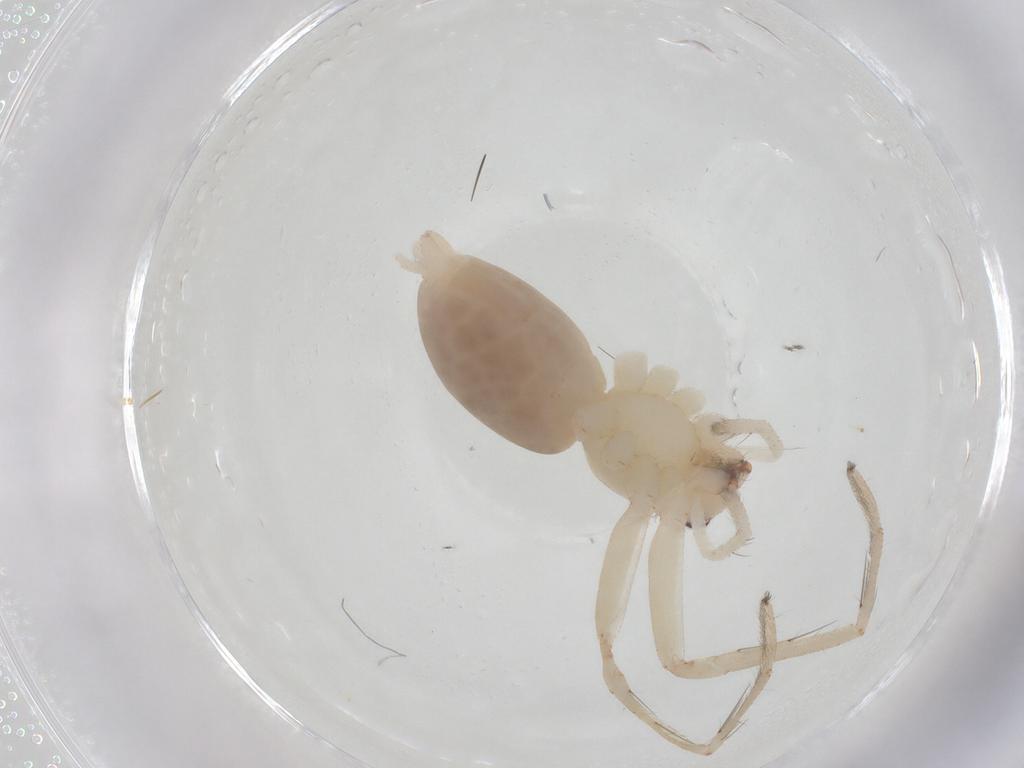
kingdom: Animalia
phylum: Arthropoda
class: Arachnida
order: Araneae
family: Anyphaenidae
